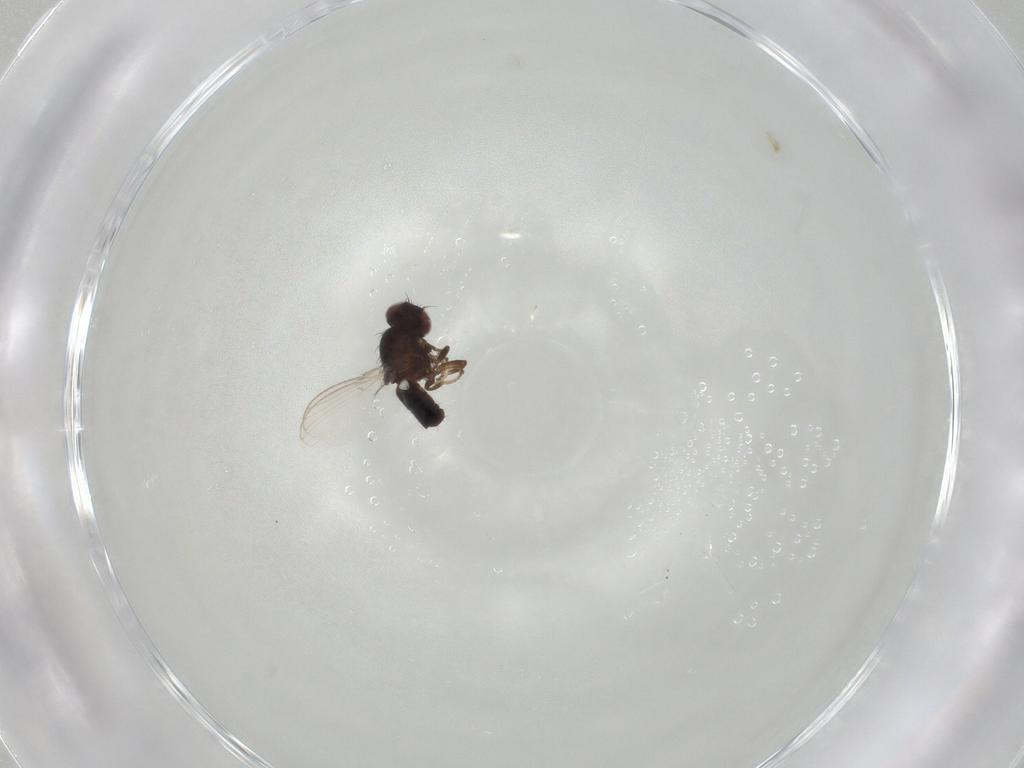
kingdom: Animalia
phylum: Arthropoda
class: Insecta
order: Diptera
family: Carnidae
